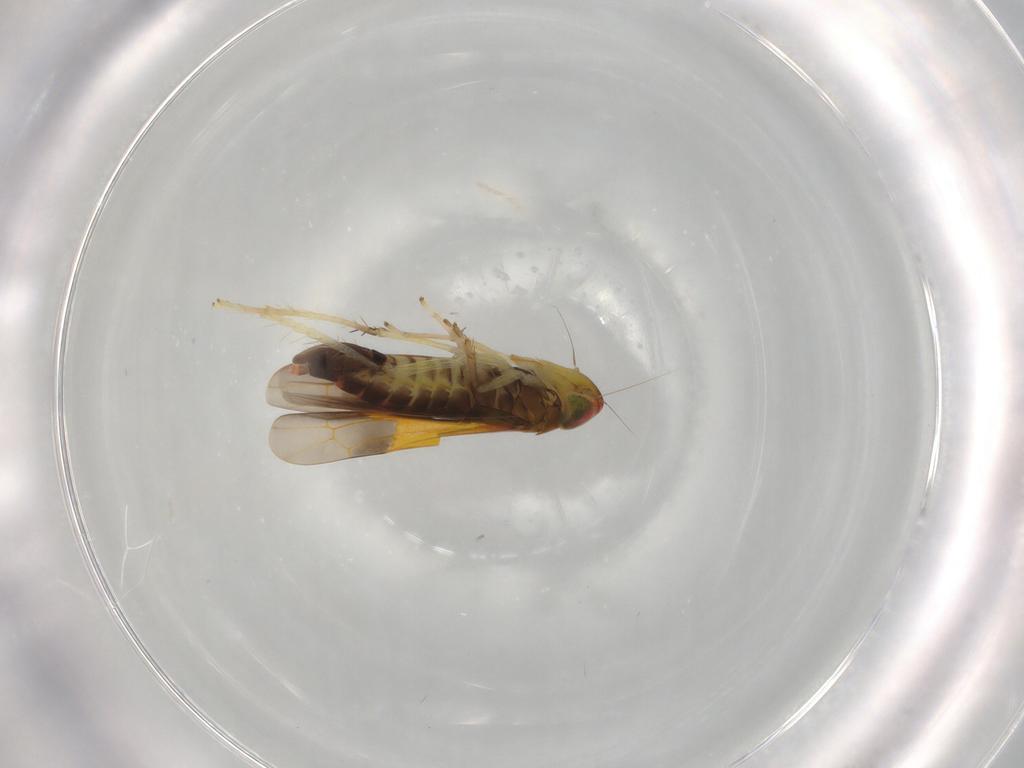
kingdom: Animalia
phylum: Arthropoda
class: Insecta
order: Hemiptera
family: Cicadellidae
